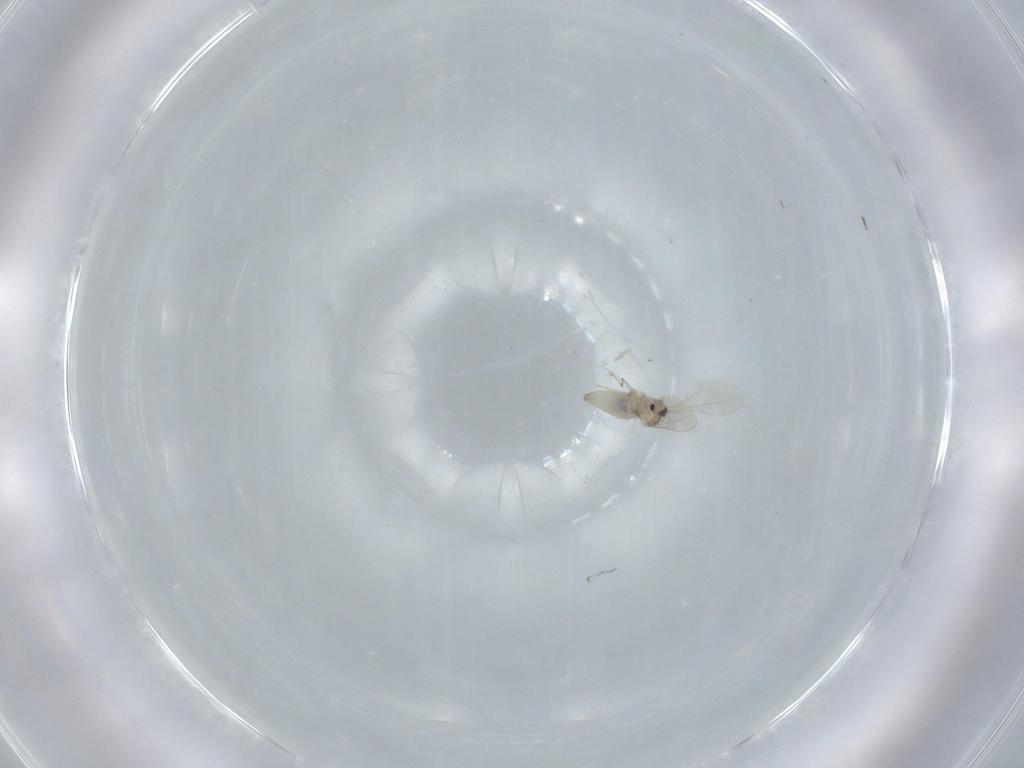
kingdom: Animalia
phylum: Arthropoda
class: Insecta
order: Diptera
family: Cecidomyiidae
